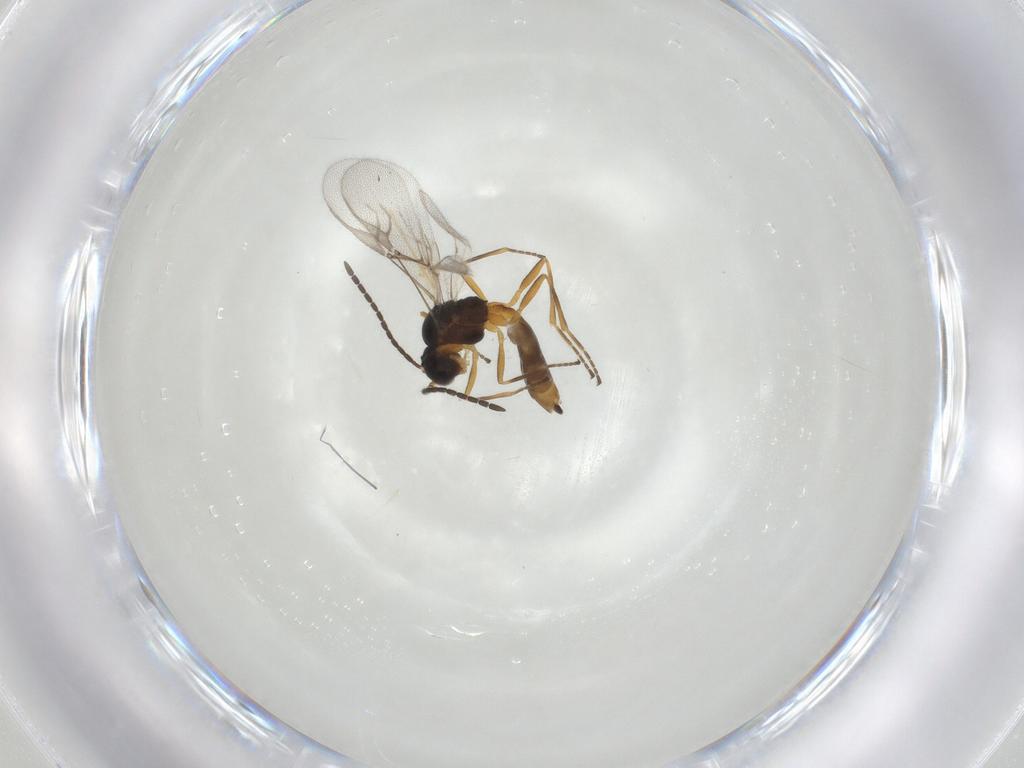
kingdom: Animalia
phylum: Arthropoda
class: Insecta
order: Hymenoptera
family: Braconidae
